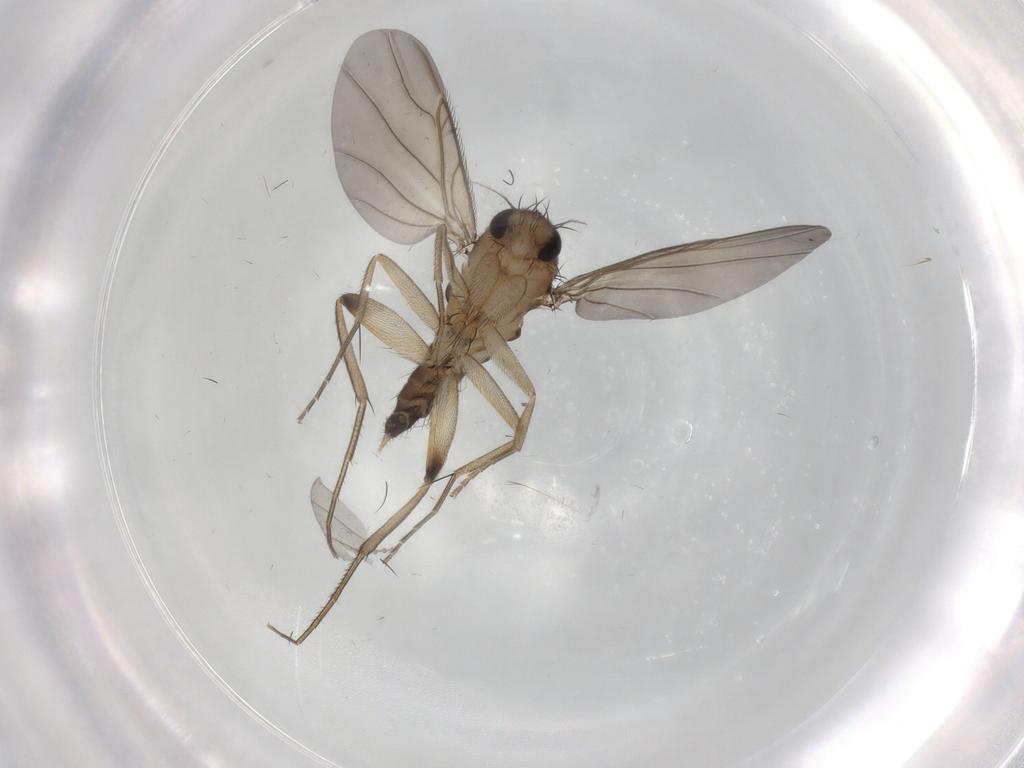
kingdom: Animalia
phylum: Arthropoda
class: Insecta
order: Diptera
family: Phoridae
